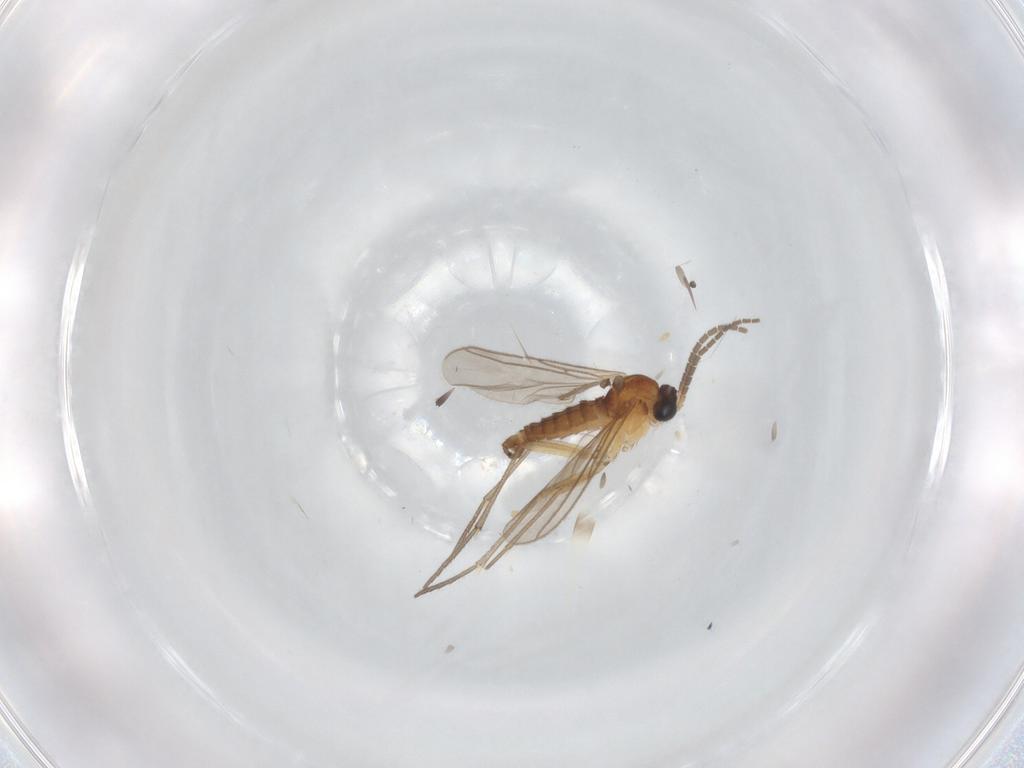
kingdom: Animalia
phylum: Arthropoda
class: Insecta
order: Diptera
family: Sciaridae
